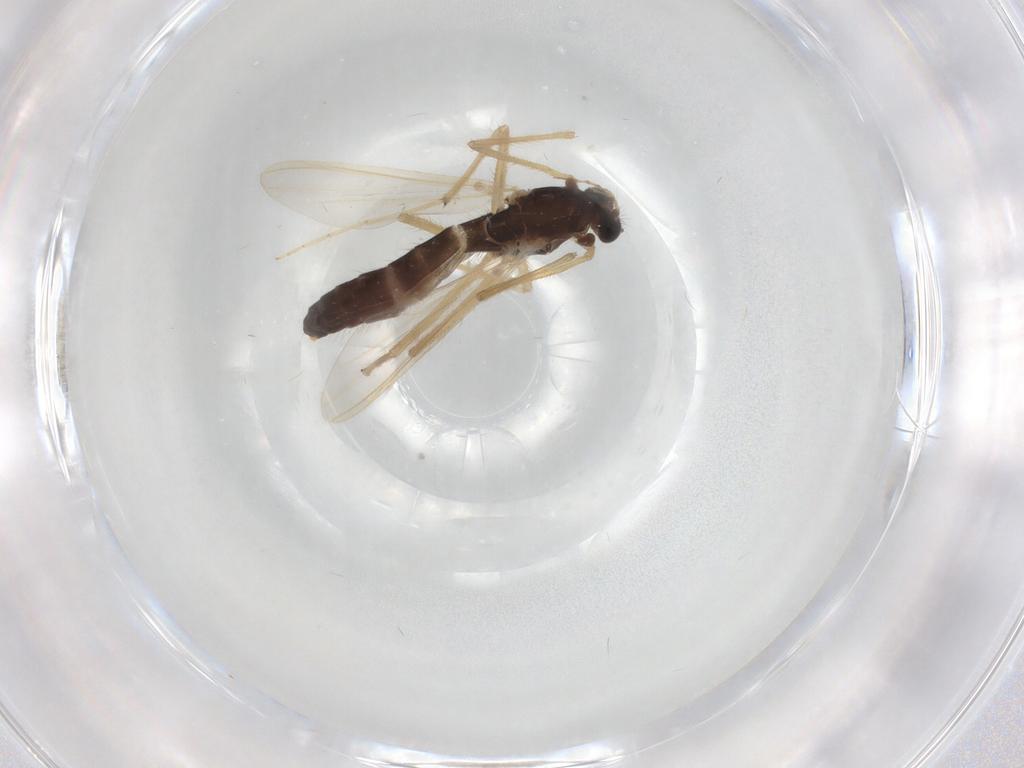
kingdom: Animalia
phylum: Arthropoda
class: Insecta
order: Diptera
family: Chironomidae
